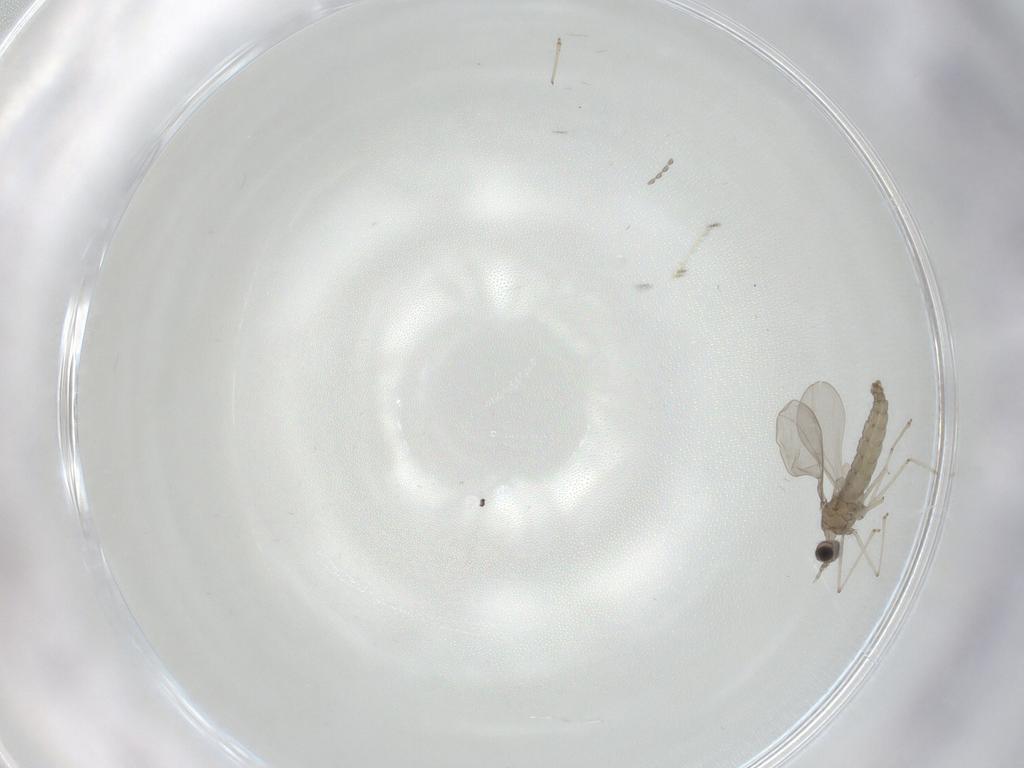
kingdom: Animalia
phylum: Arthropoda
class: Insecta
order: Diptera
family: Cecidomyiidae
